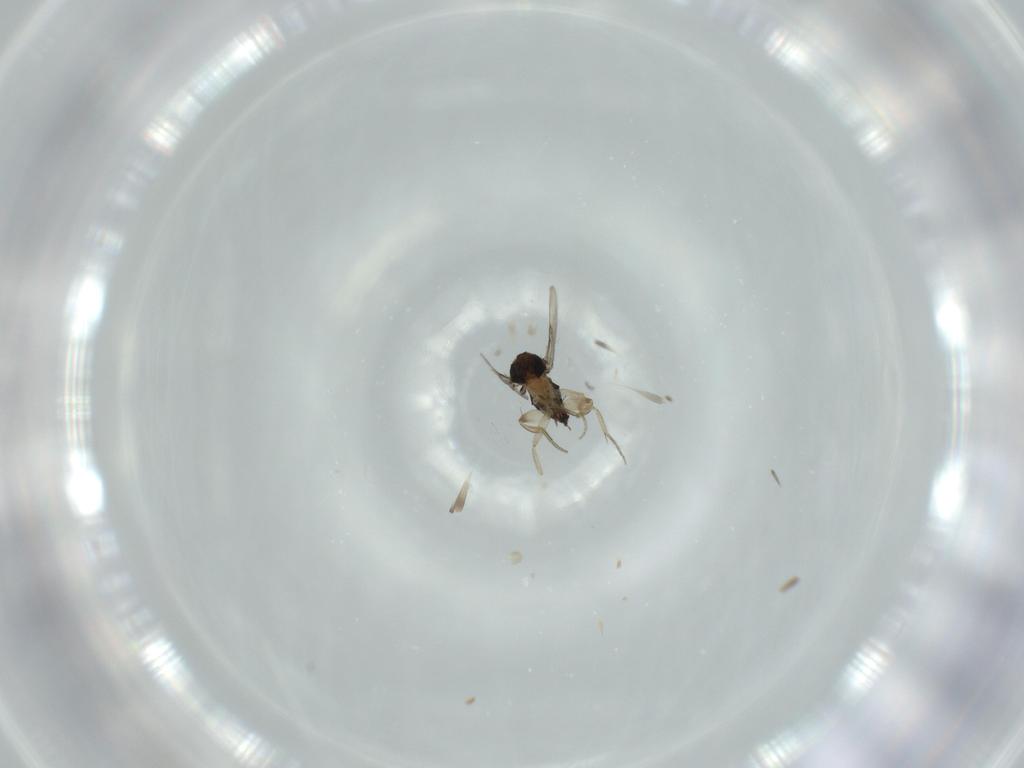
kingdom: Animalia
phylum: Arthropoda
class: Insecta
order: Diptera
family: Phoridae
